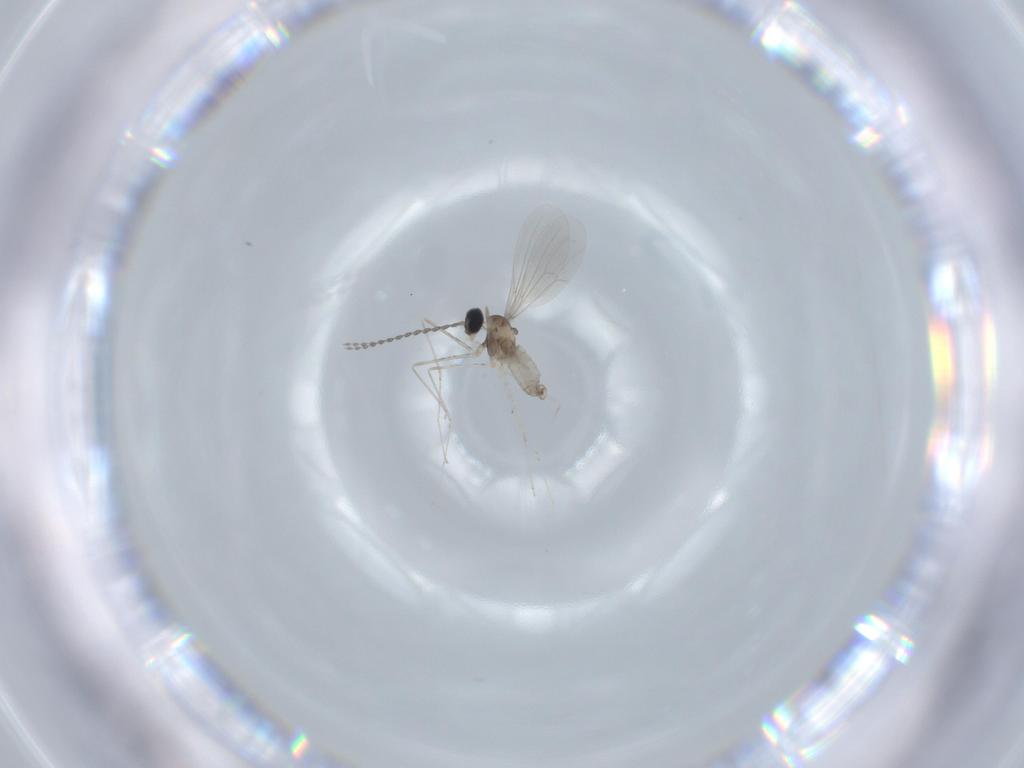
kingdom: Animalia
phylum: Arthropoda
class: Insecta
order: Diptera
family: Cecidomyiidae
